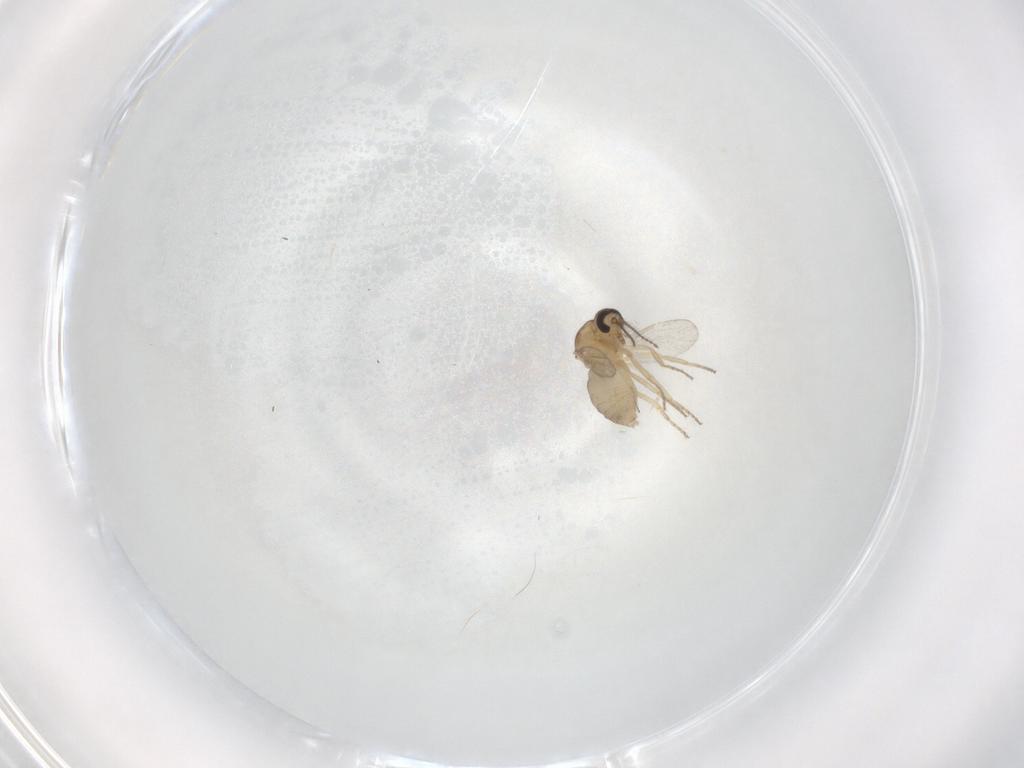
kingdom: Animalia
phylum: Arthropoda
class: Insecta
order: Diptera
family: Ceratopogonidae
